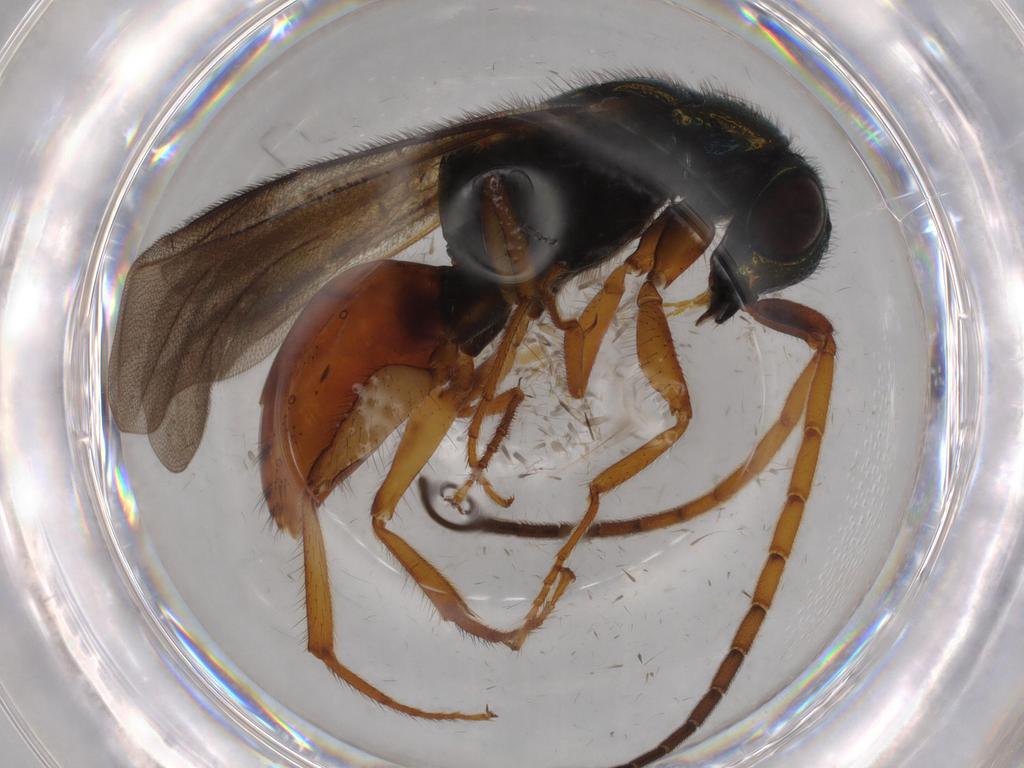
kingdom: Animalia
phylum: Arthropoda
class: Insecta
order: Hymenoptera
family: Chrysididae
